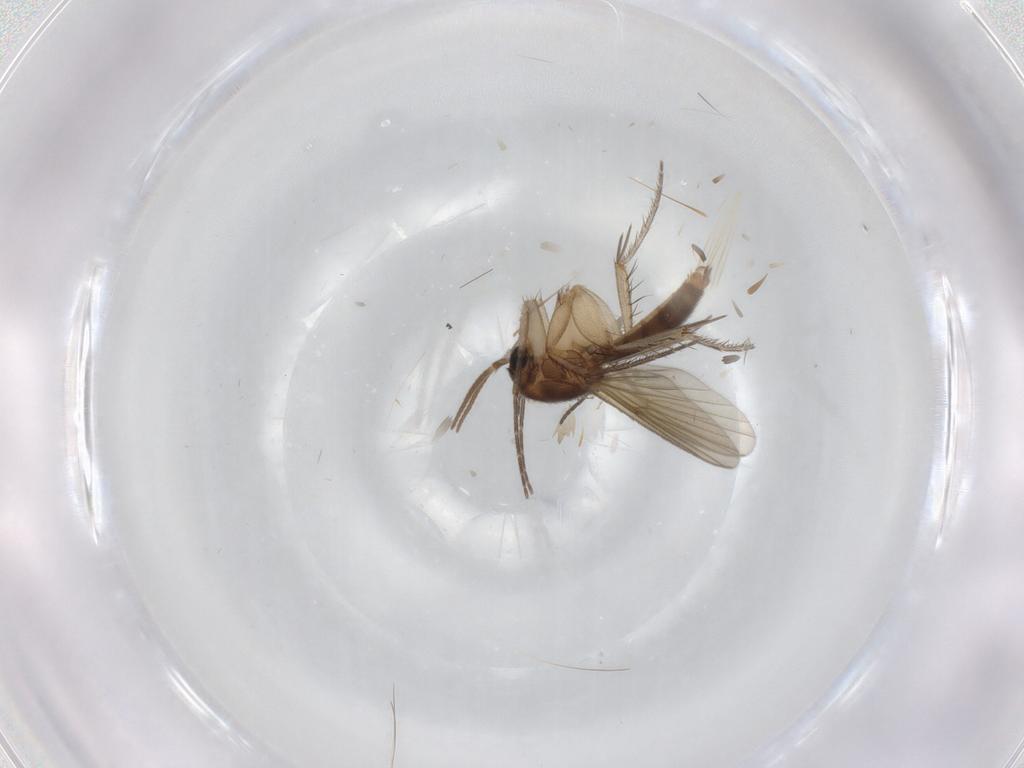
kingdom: Animalia
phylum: Arthropoda
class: Insecta
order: Diptera
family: Mycetophilidae
